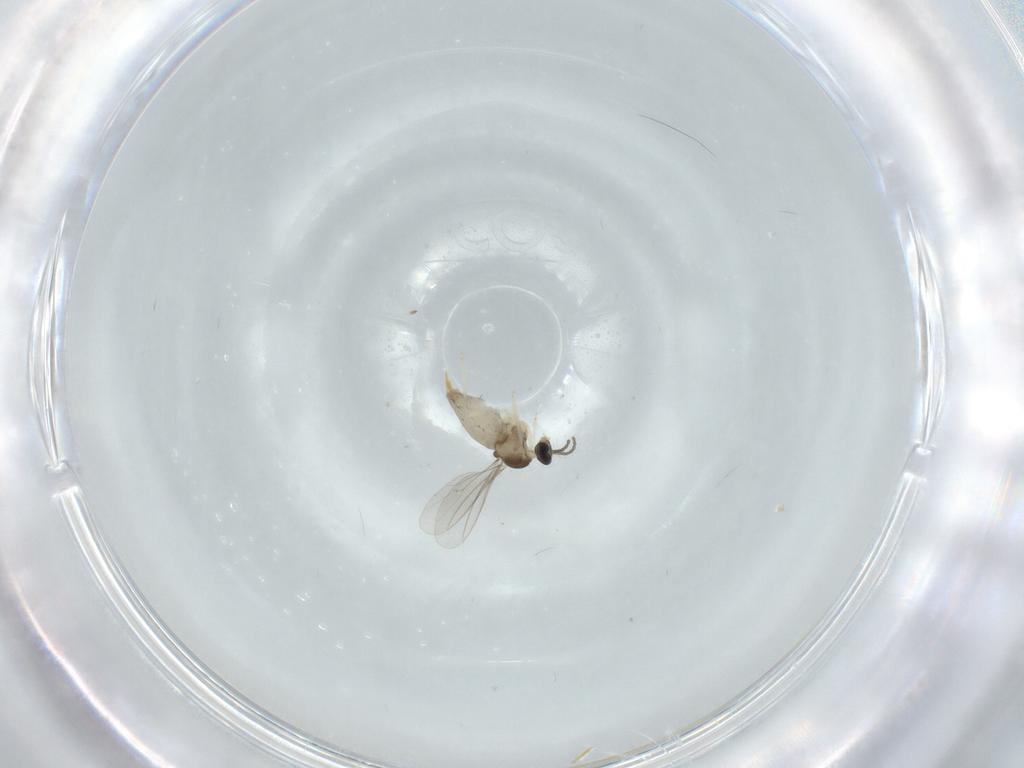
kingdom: Animalia
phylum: Arthropoda
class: Insecta
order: Diptera
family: Cecidomyiidae
